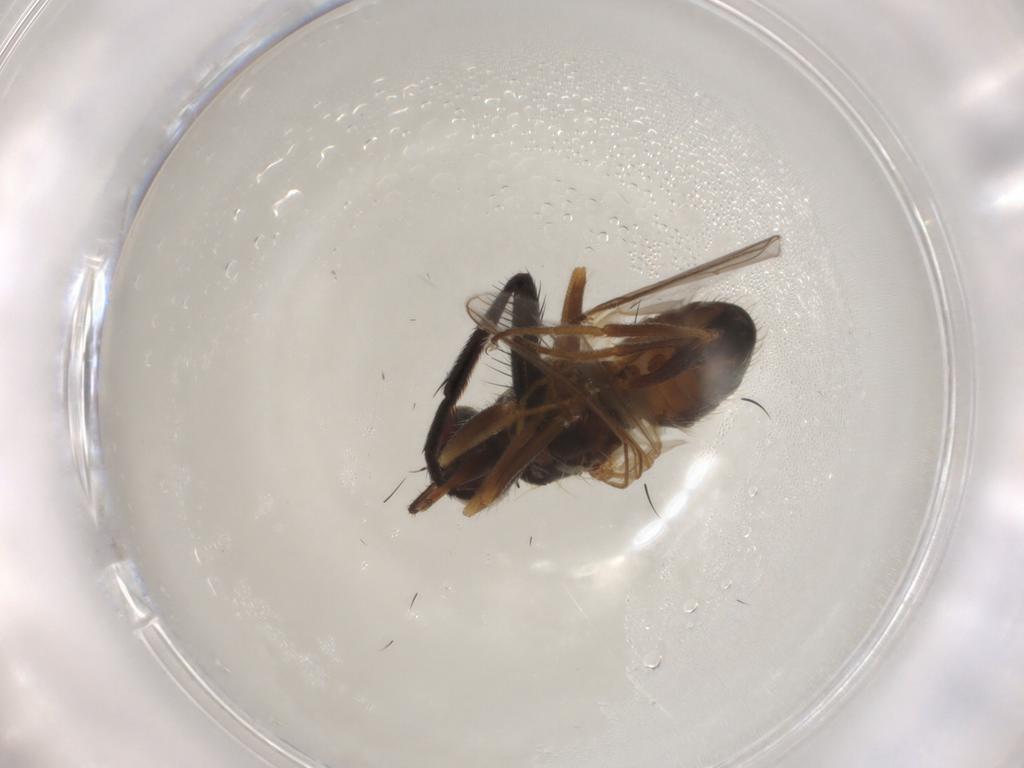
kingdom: Animalia
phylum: Arthropoda
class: Insecta
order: Diptera
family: Muscidae
